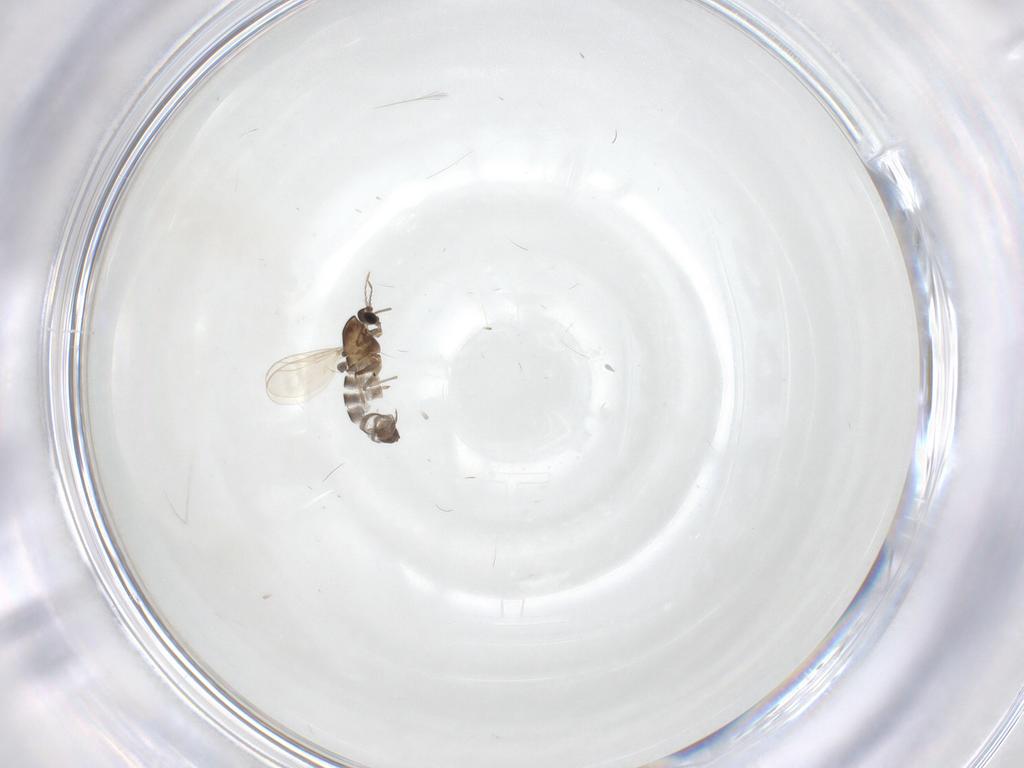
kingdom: Animalia
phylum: Arthropoda
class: Insecta
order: Diptera
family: Chironomidae
